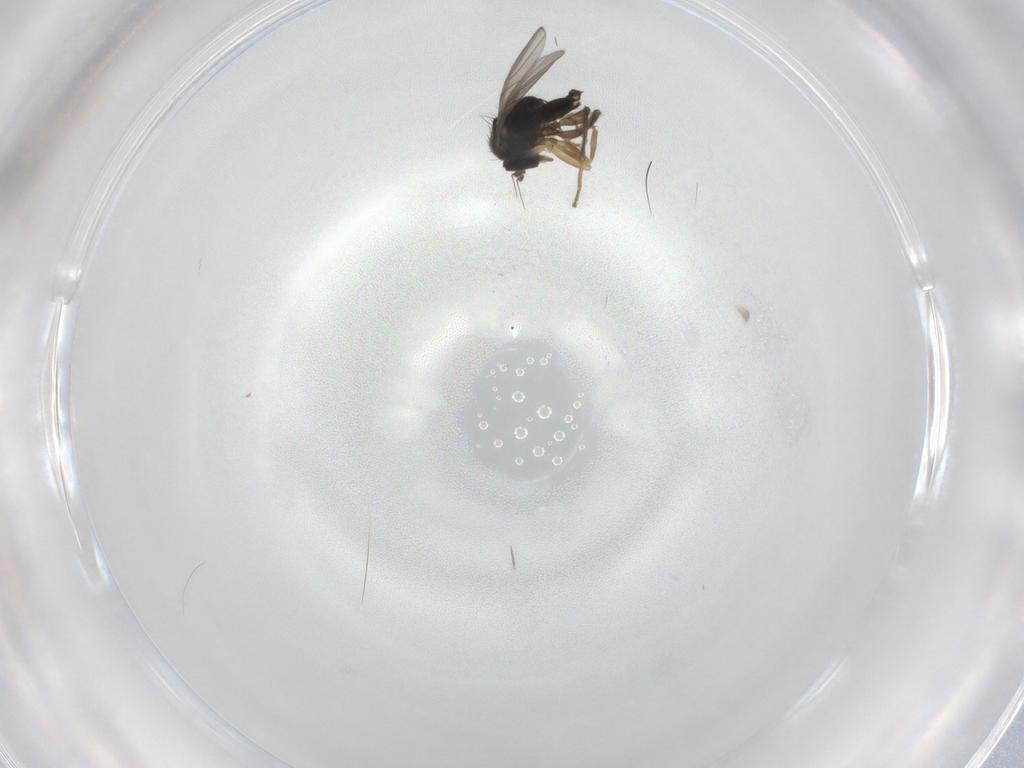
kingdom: Animalia
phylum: Arthropoda
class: Insecta
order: Diptera
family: Hybotidae
